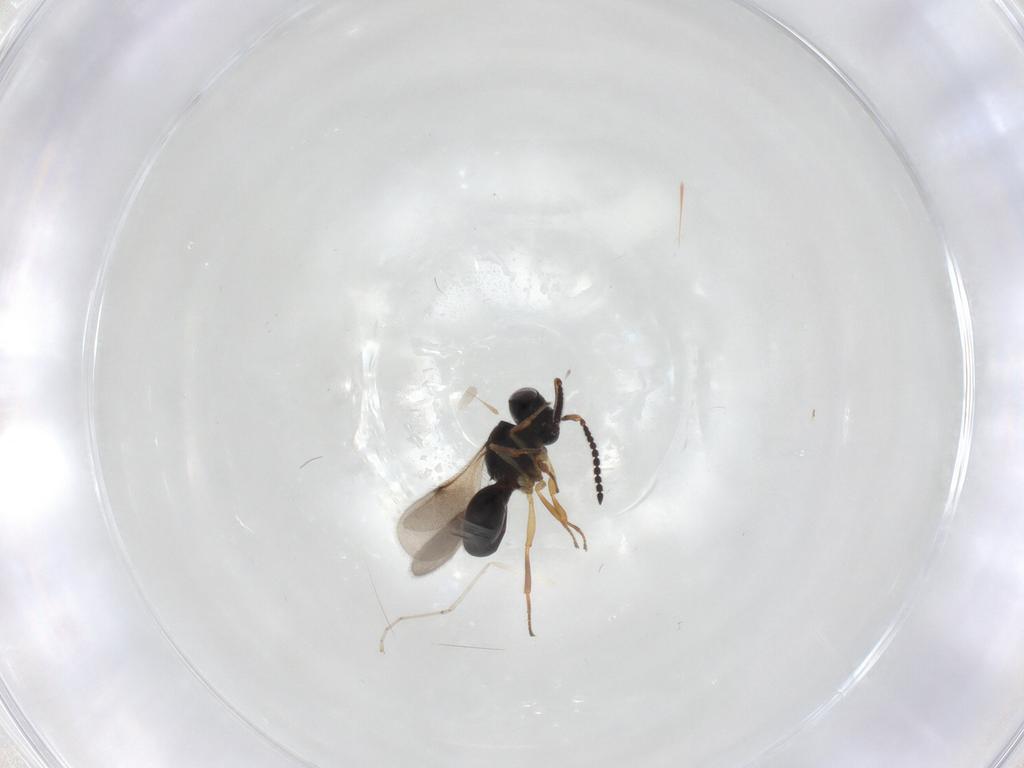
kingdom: Animalia
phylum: Arthropoda
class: Insecta
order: Hymenoptera
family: Scelionidae
